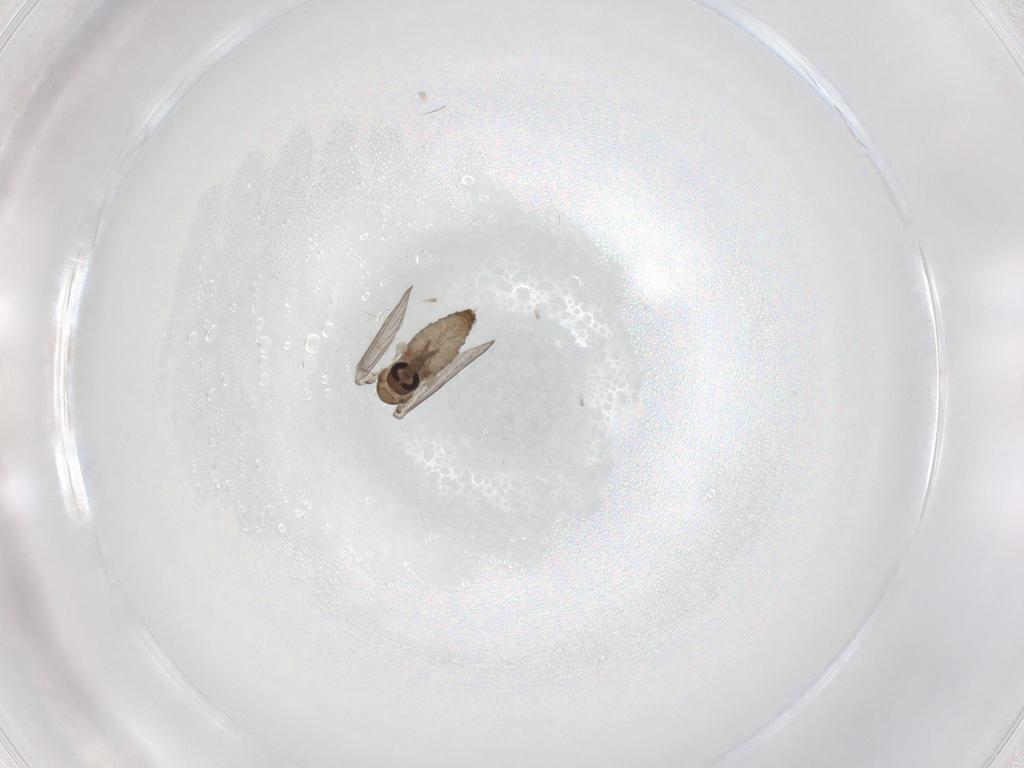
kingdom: Animalia
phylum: Arthropoda
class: Insecta
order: Diptera
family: Psychodidae
